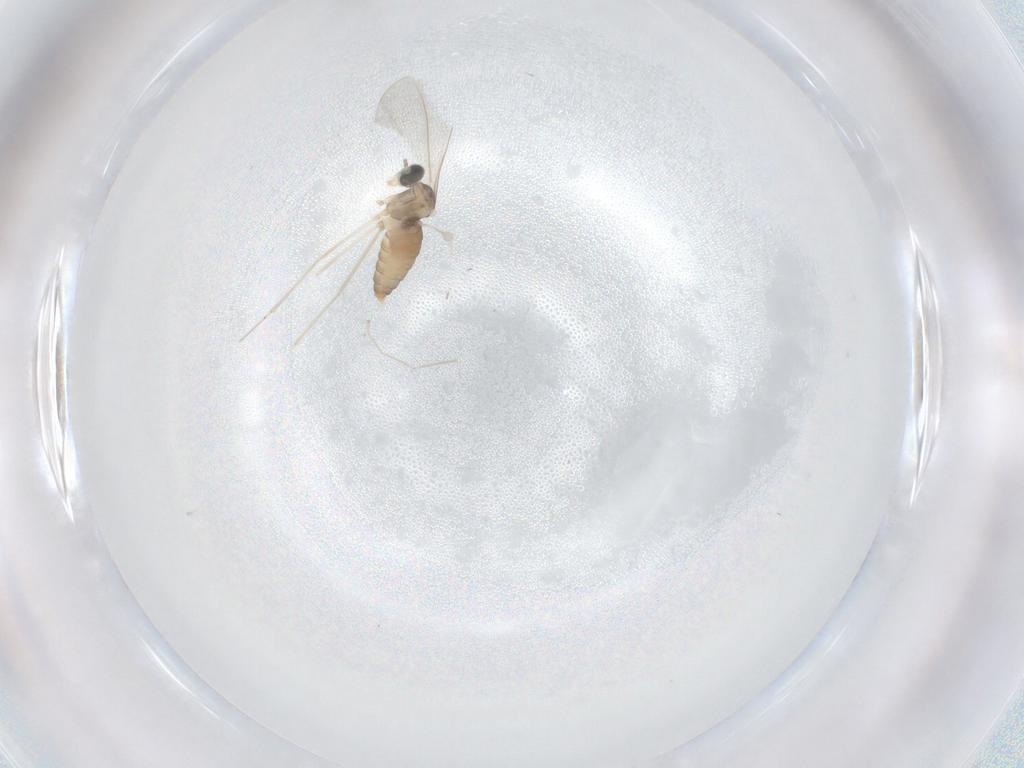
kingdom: Animalia
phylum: Arthropoda
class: Insecta
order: Diptera
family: Cecidomyiidae
